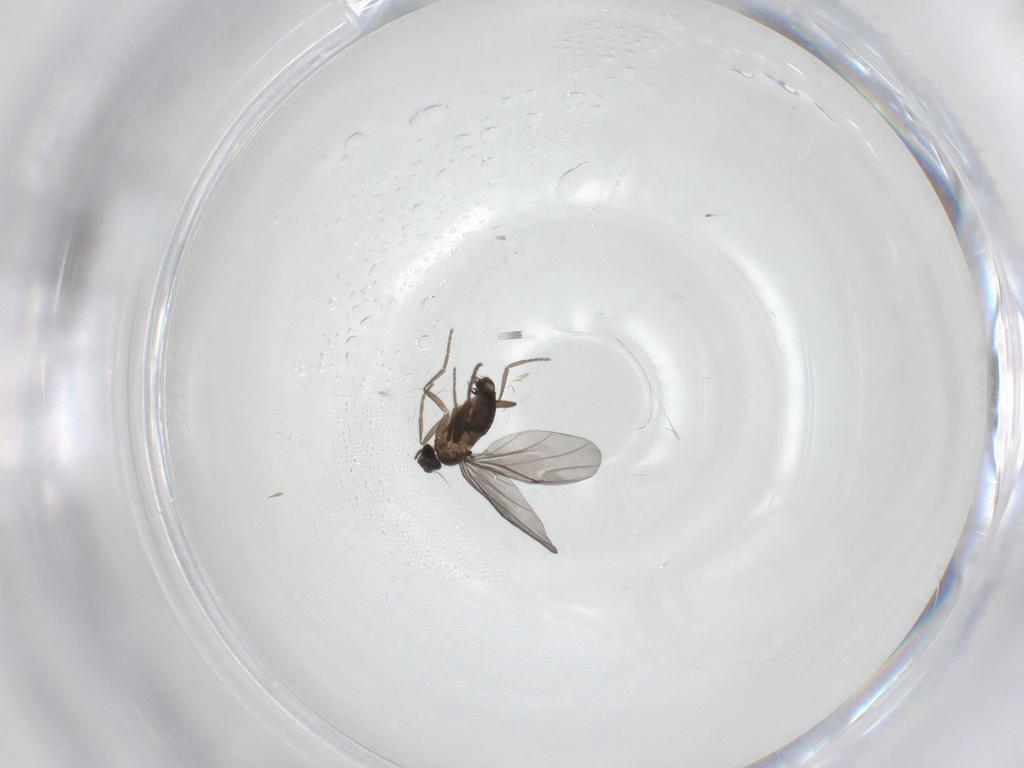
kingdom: Animalia
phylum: Arthropoda
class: Insecta
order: Diptera
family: Phoridae
